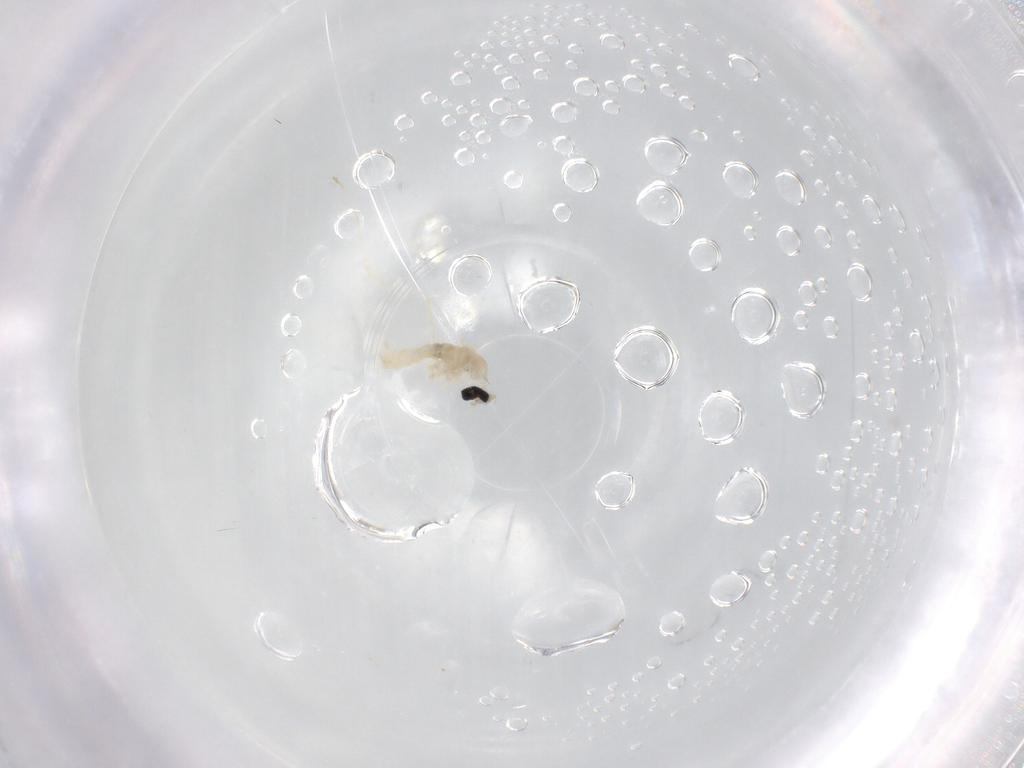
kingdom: Animalia
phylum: Arthropoda
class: Insecta
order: Diptera
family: Cecidomyiidae
